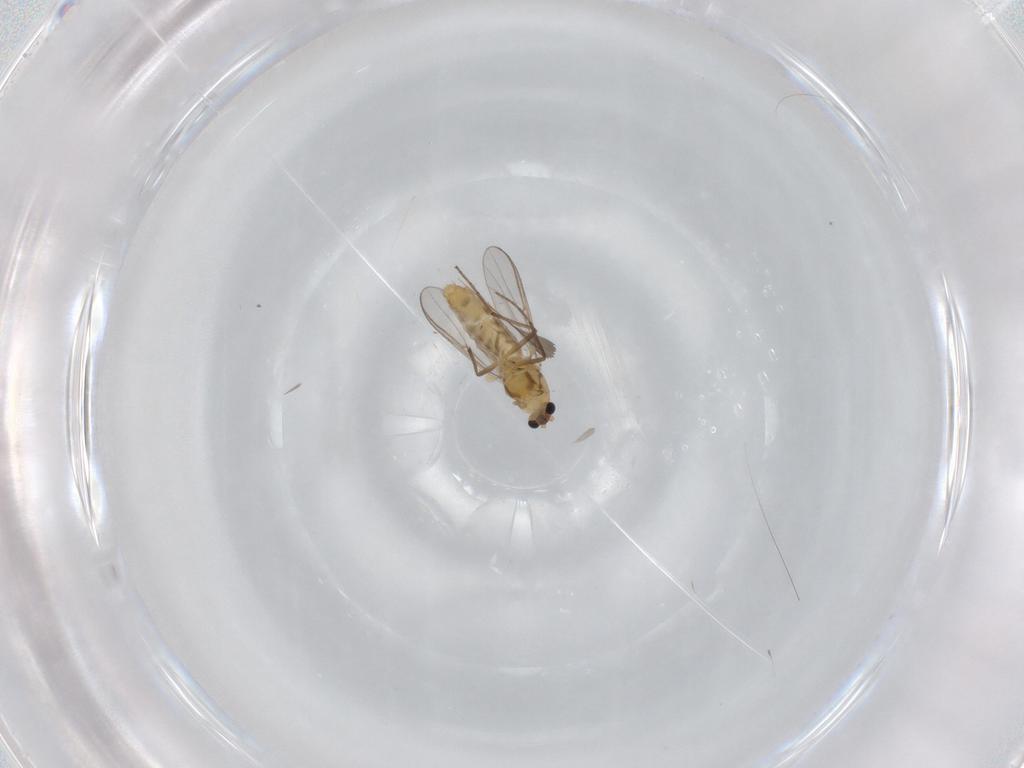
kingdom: Animalia
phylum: Arthropoda
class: Insecta
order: Diptera
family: Chironomidae
